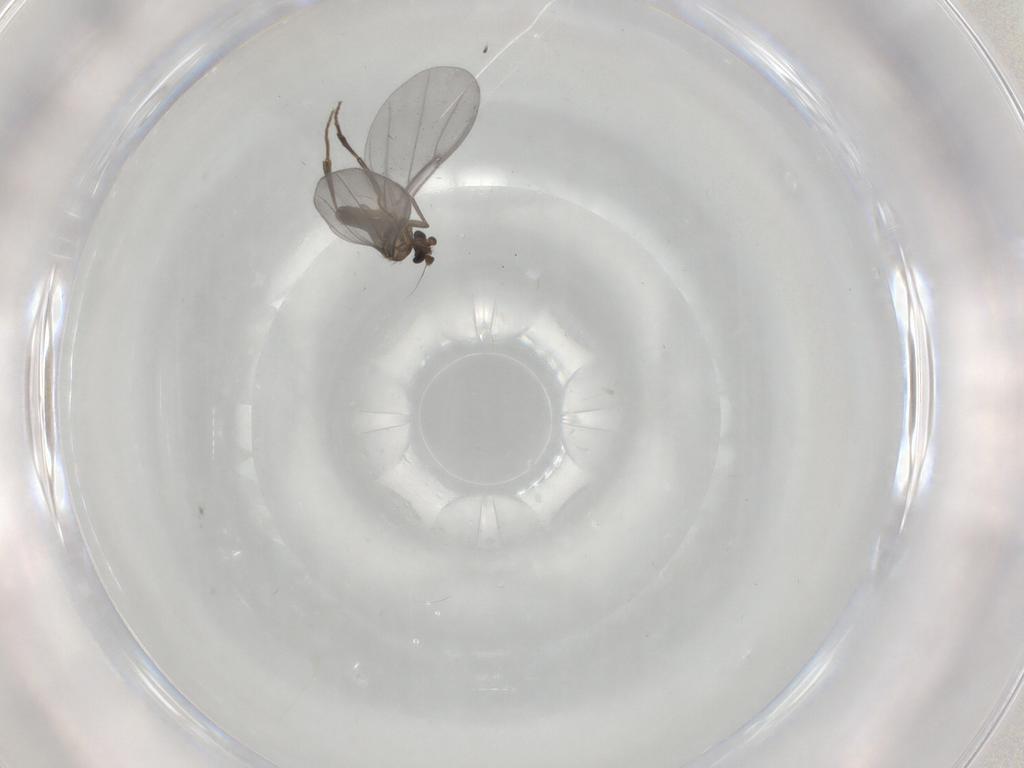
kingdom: Animalia
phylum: Arthropoda
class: Insecta
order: Diptera
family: Phoridae
